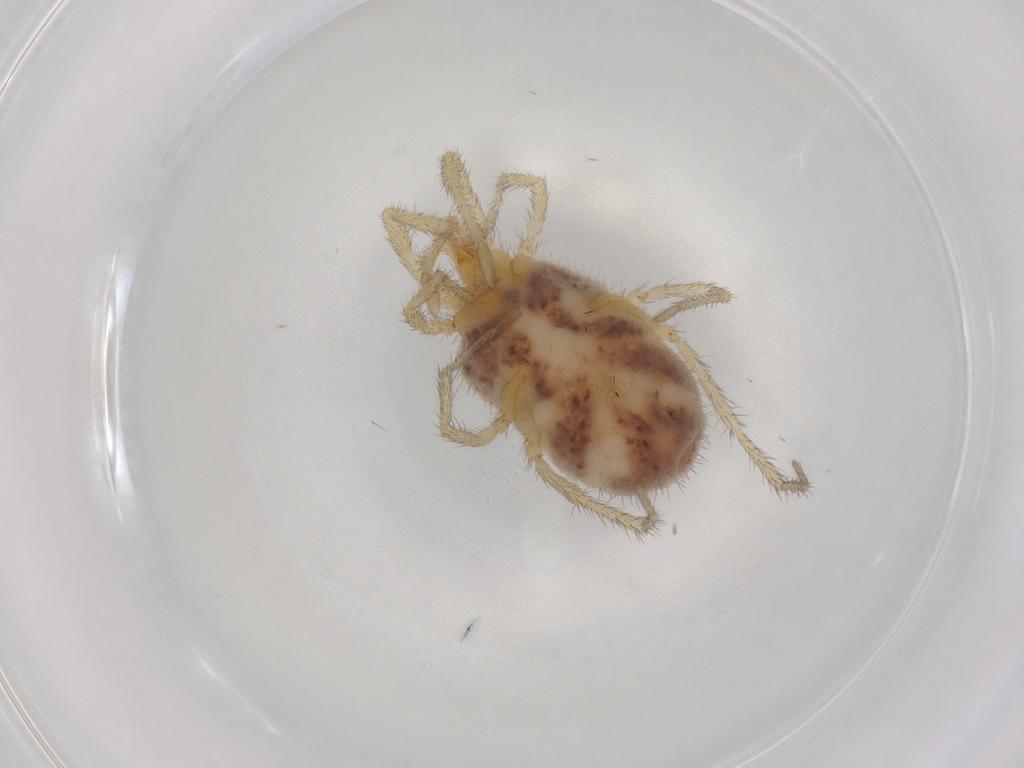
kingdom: Animalia
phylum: Arthropoda
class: Arachnida
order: Trombidiformes
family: Erythraeidae
